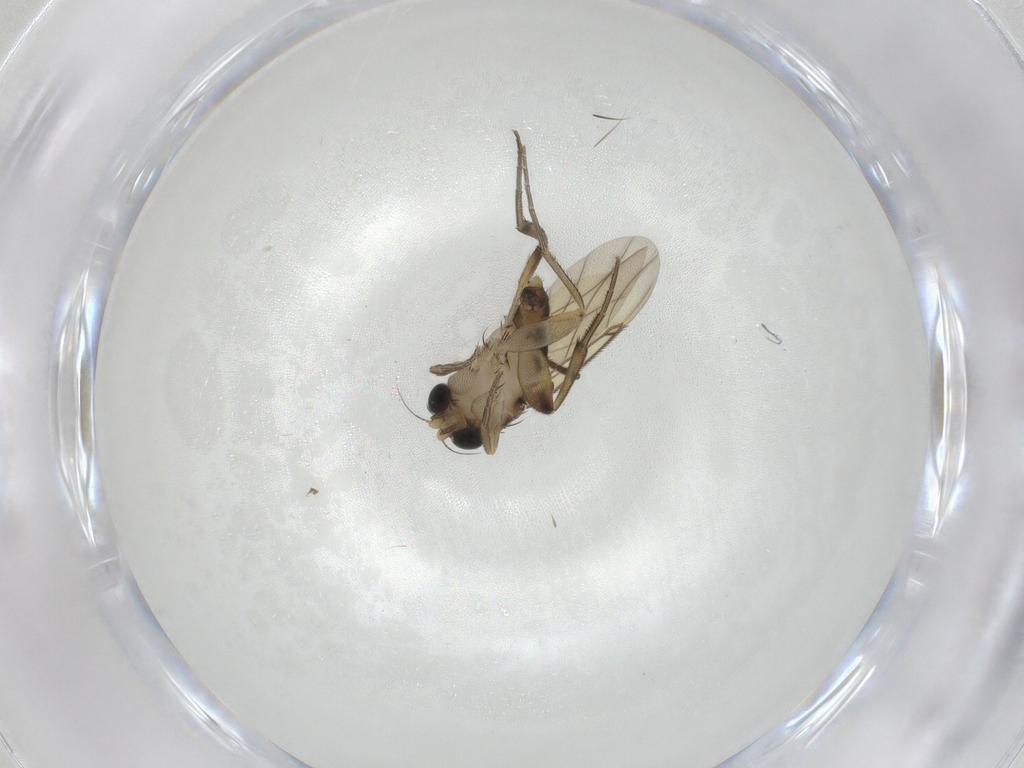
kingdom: Animalia
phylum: Arthropoda
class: Insecta
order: Diptera
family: Phoridae
